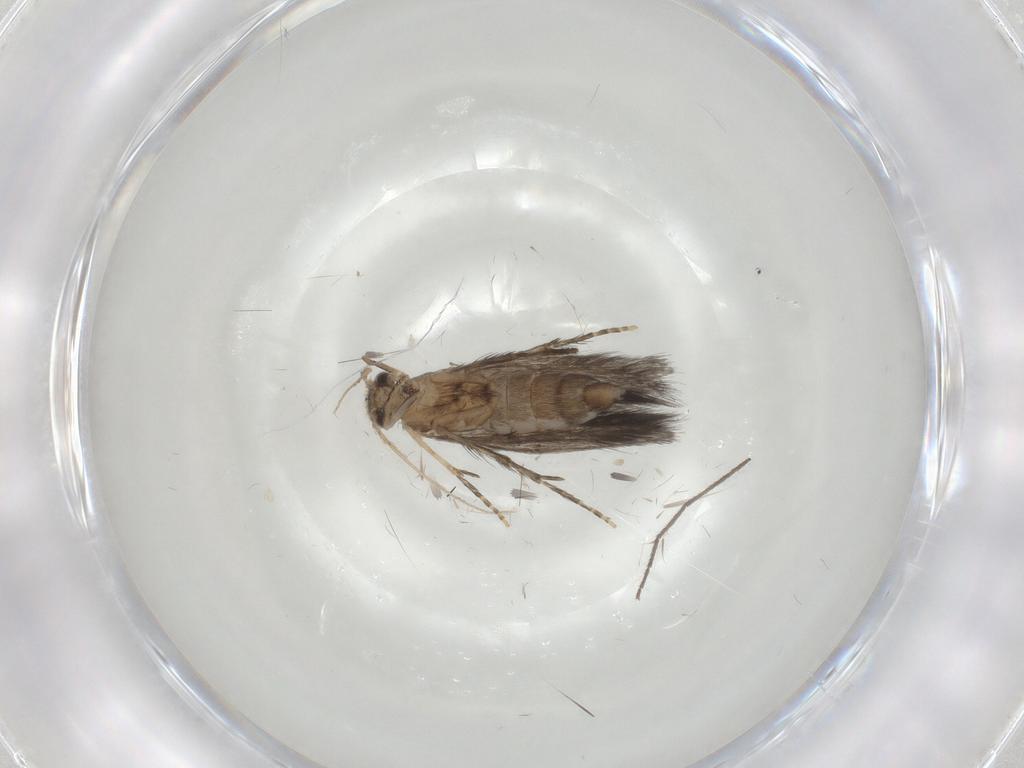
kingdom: Animalia
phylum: Arthropoda
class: Insecta
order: Trichoptera
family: Hydroptilidae
